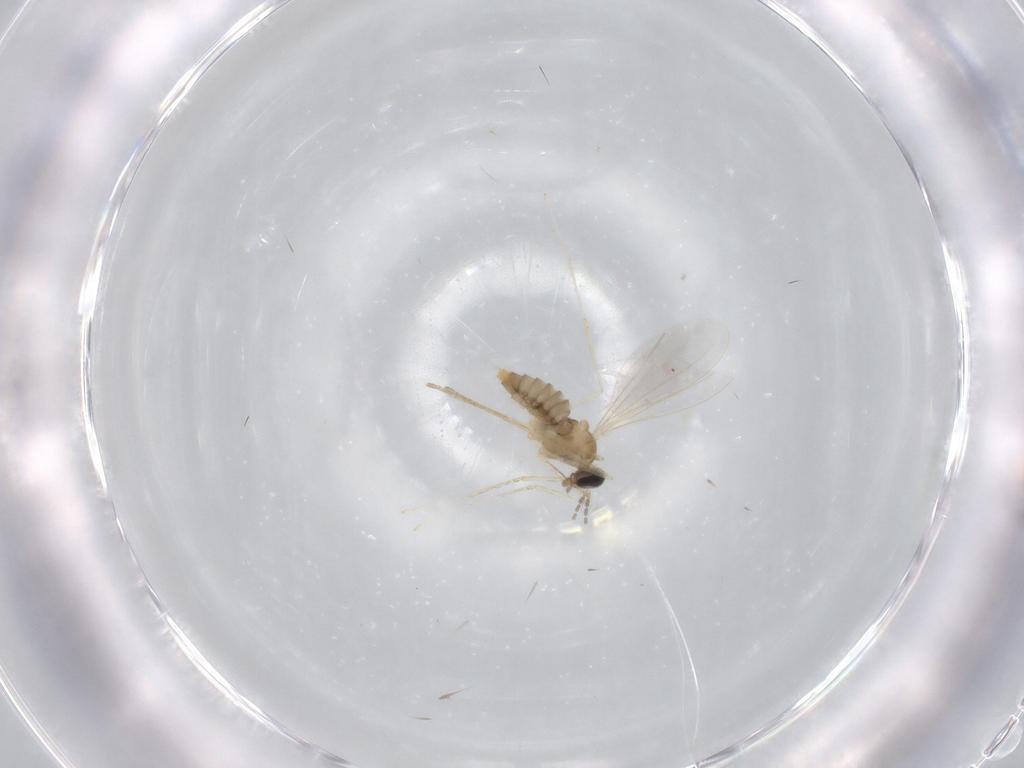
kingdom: Animalia
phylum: Arthropoda
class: Insecta
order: Diptera
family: Cecidomyiidae
